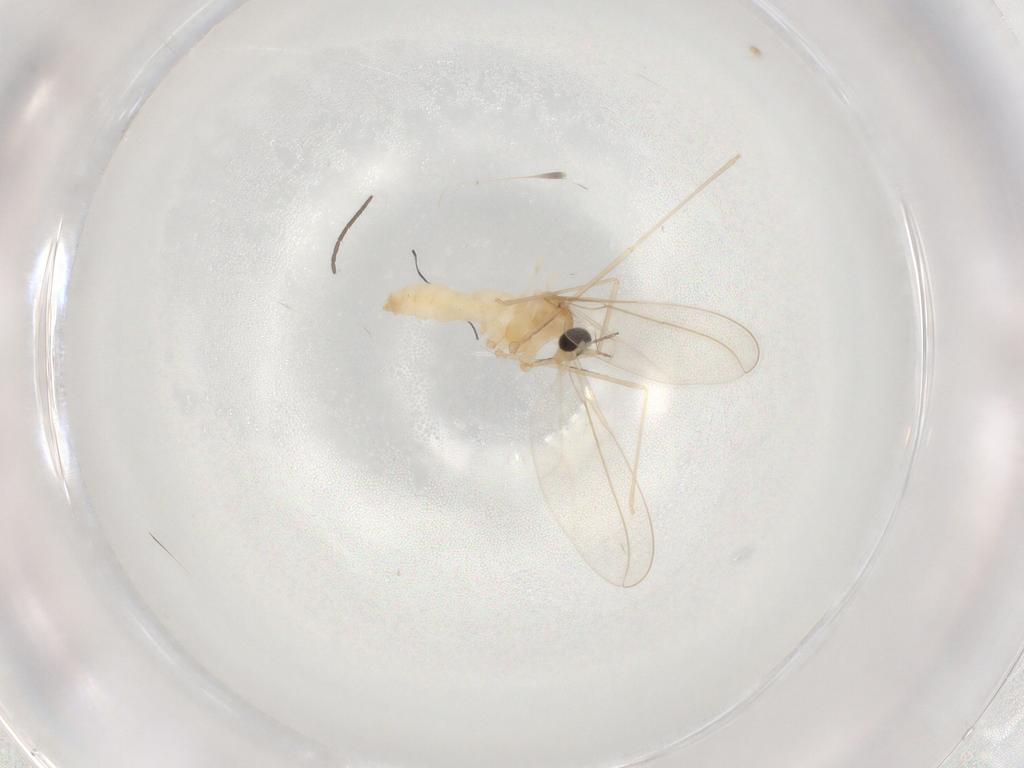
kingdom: Animalia
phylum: Arthropoda
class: Insecta
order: Diptera
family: Cecidomyiidae
